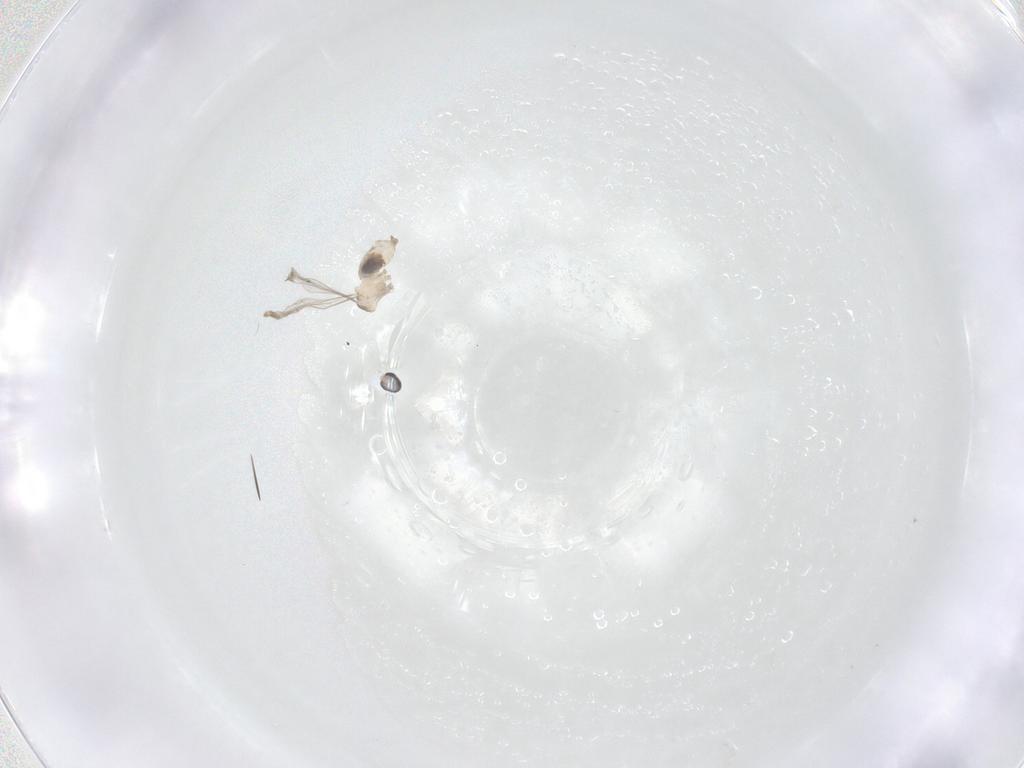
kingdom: Animalia
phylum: Arthropoda
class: Insecta
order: Diptera
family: Cecidomyiidae
